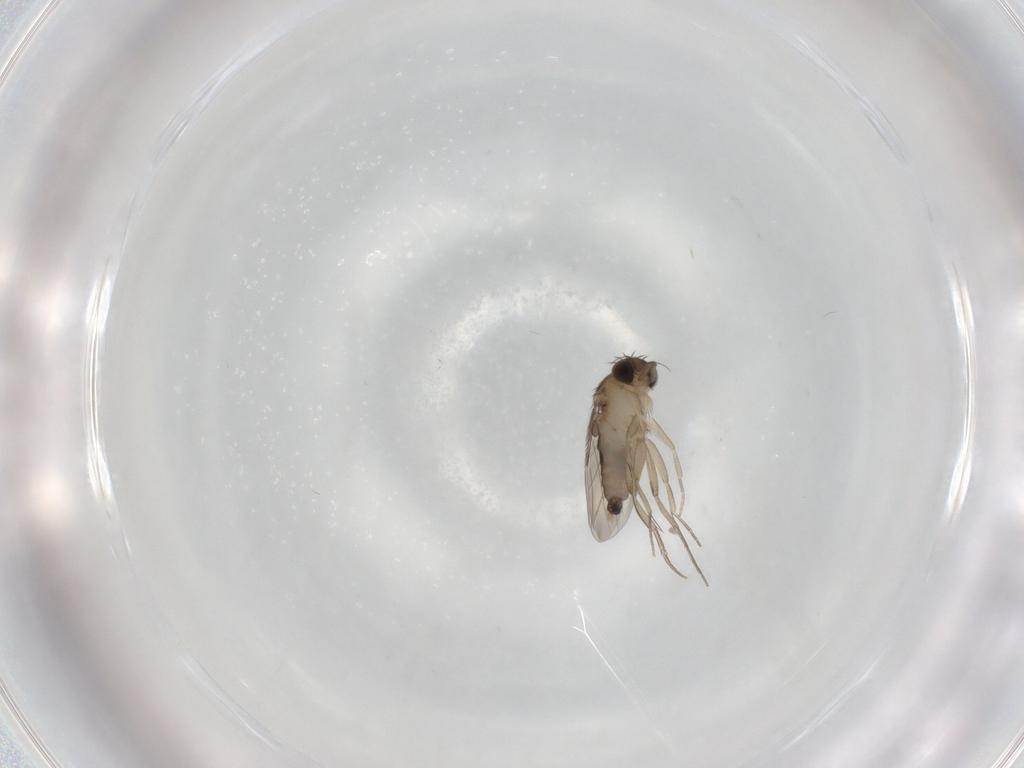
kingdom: Animalia
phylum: Arthropoda
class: Insecta
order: Diptera
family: Phoridae
